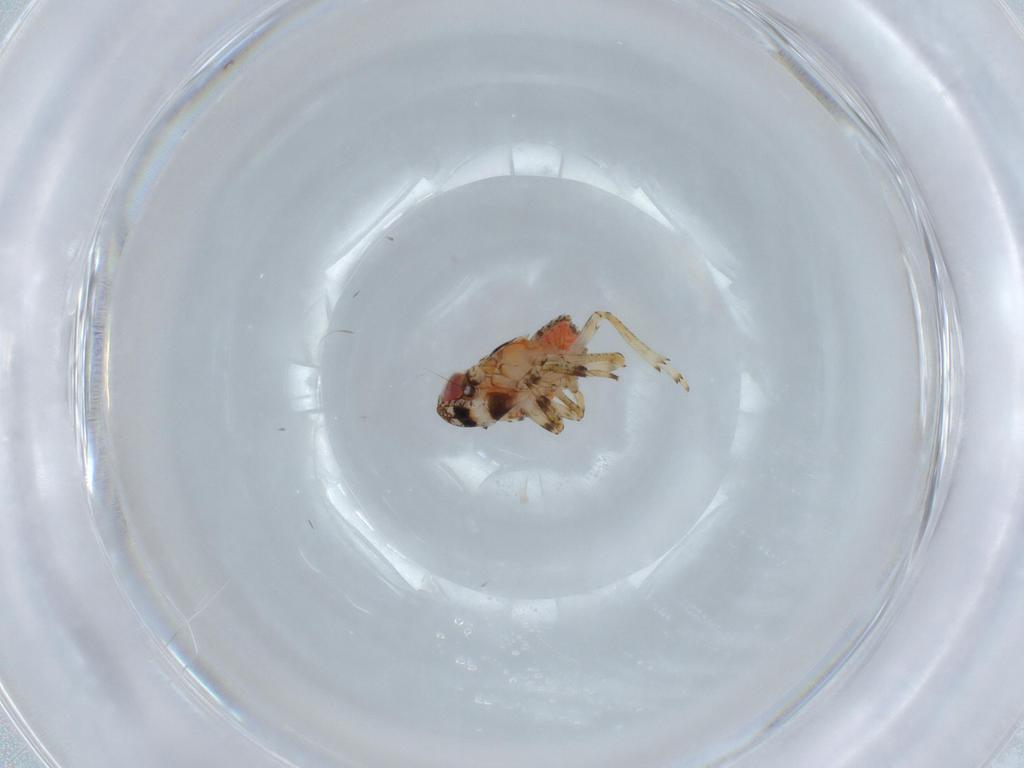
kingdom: Animalia
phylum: Arthropoda
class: Insecta
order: Hemiptera
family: Issidae
